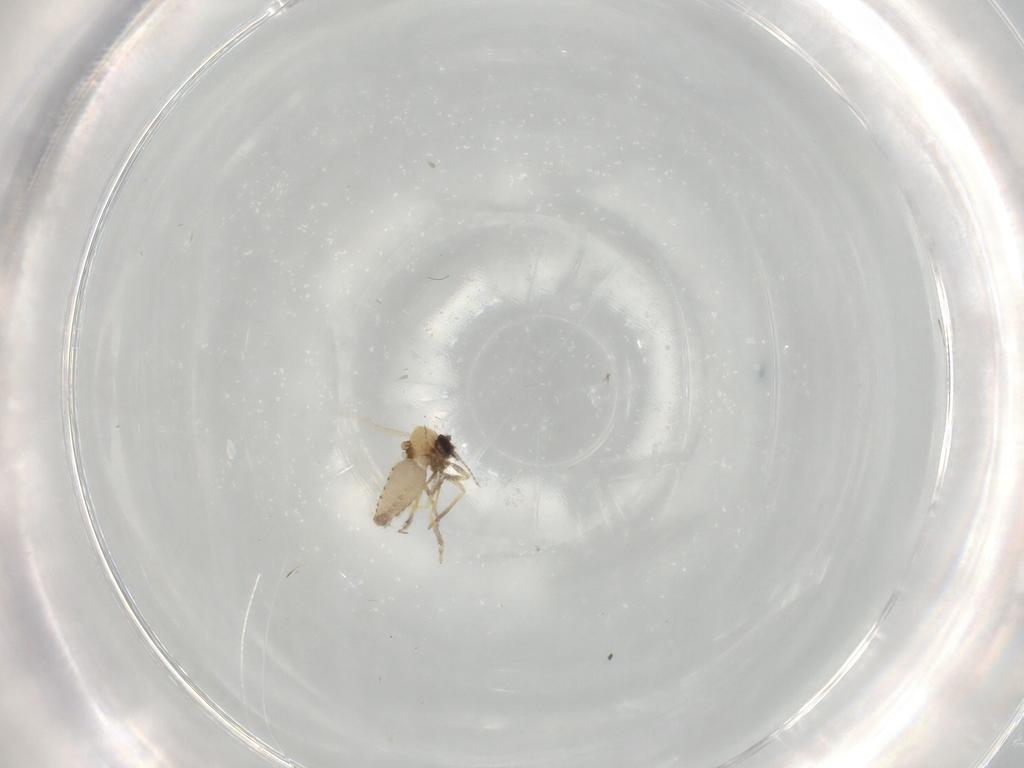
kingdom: Animalia
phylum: Arthropoda
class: Insecta
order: Diptera
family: Ceratopogonidae
